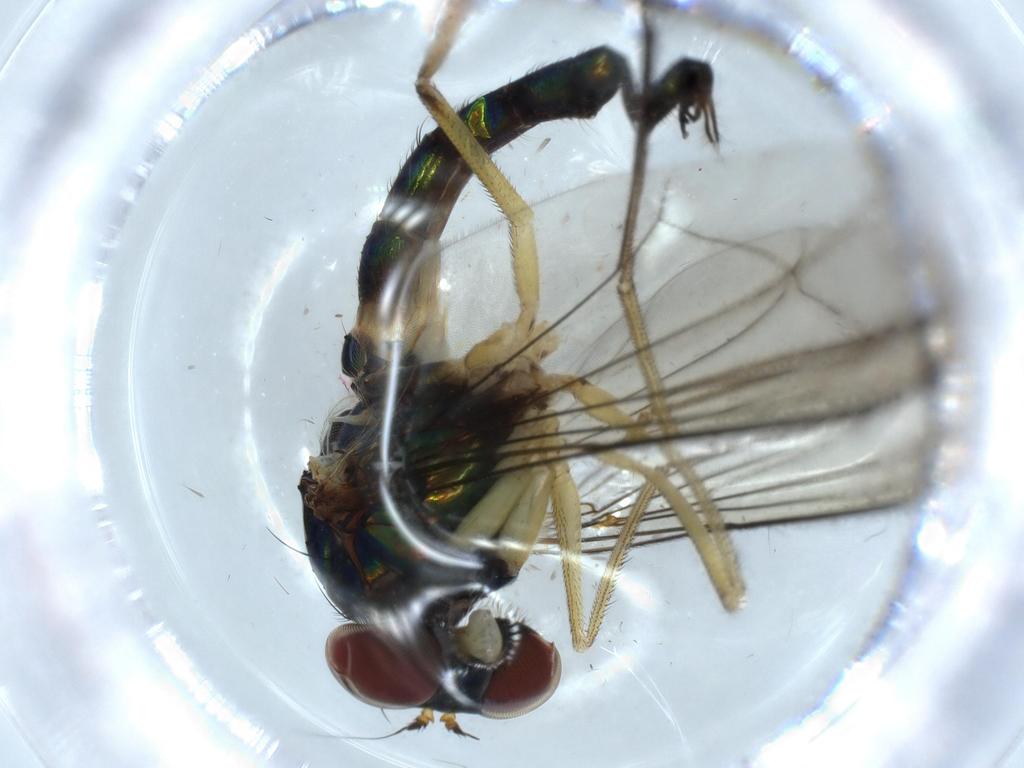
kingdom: Animalia
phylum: Arthropoda
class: Insecta
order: Diptera
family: Dolichopodidae
